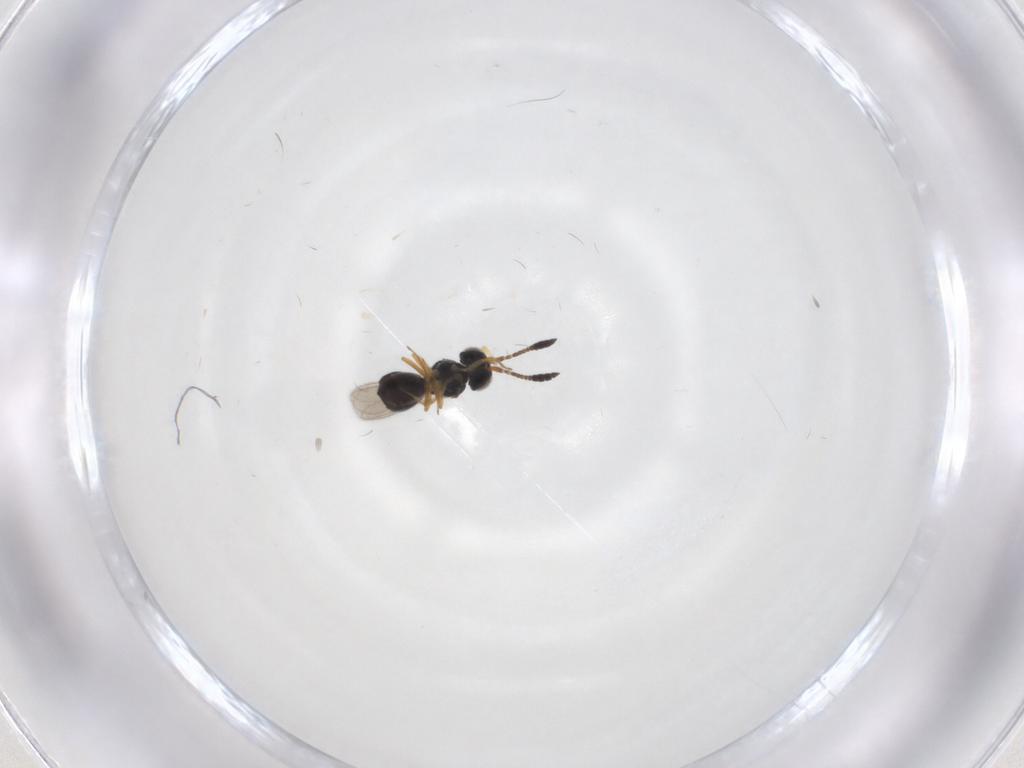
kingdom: Animalia
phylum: Arthropoda
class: Insecta
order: Hymenoptera
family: Scelionidae
